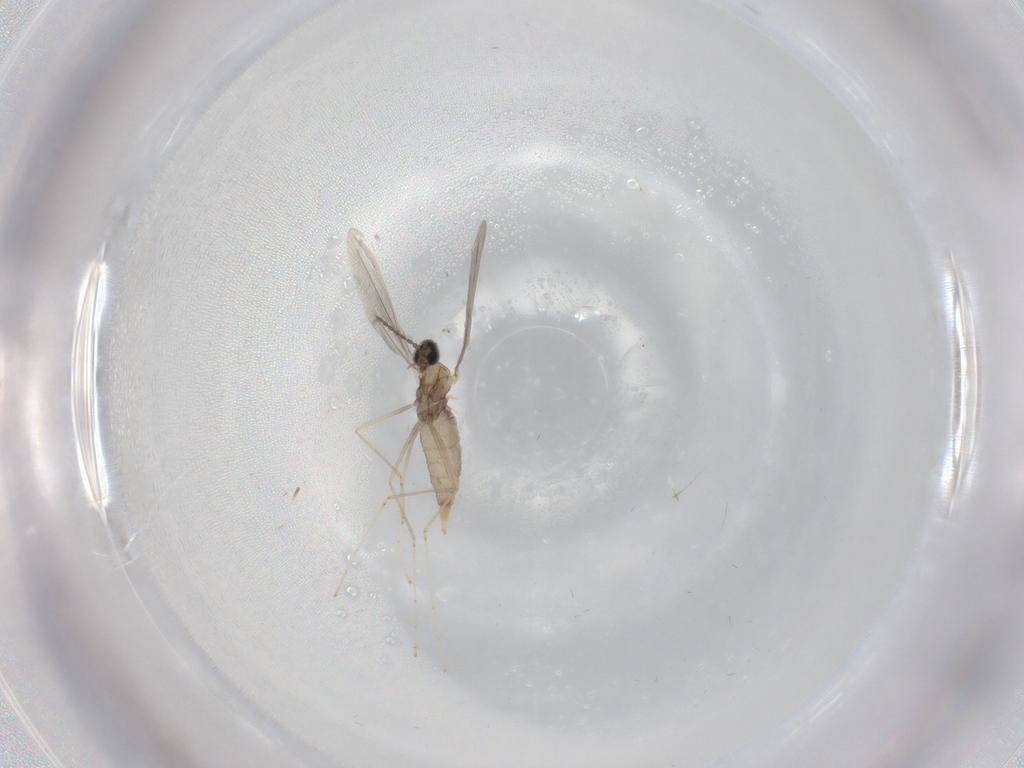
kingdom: Animalia
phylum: Arthropoda
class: Insecta
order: Diptera
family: Cecidomyiidae
